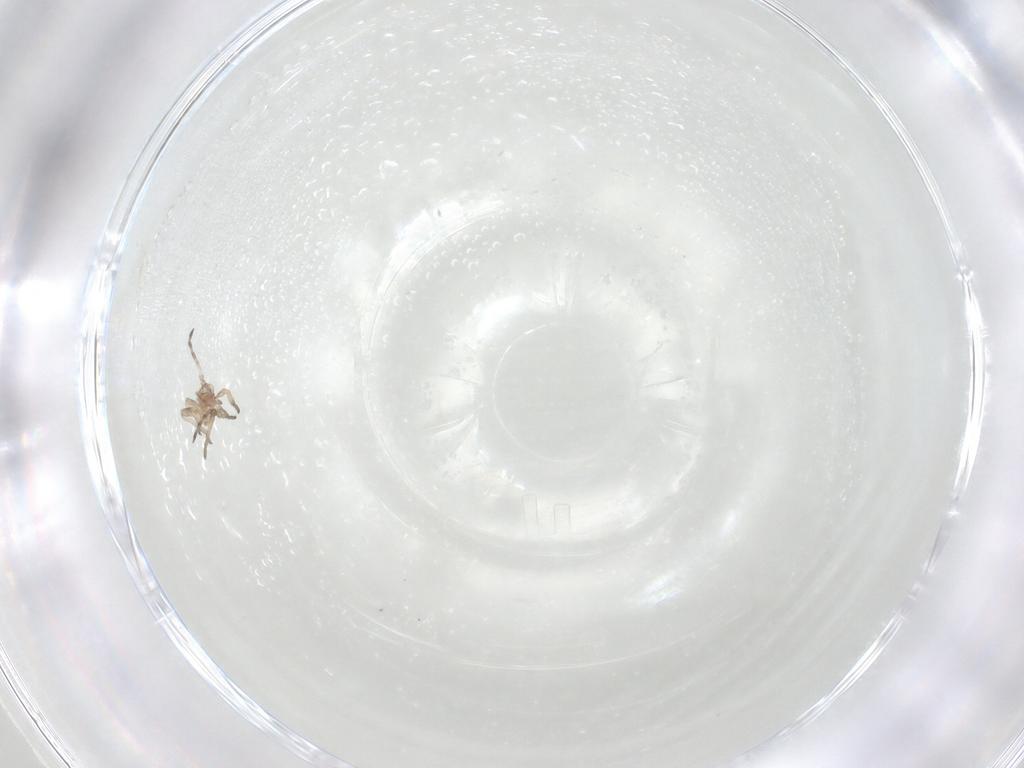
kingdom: Animalia
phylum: Arthropoda
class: Insecta
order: Hemiptera
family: Aphididae
